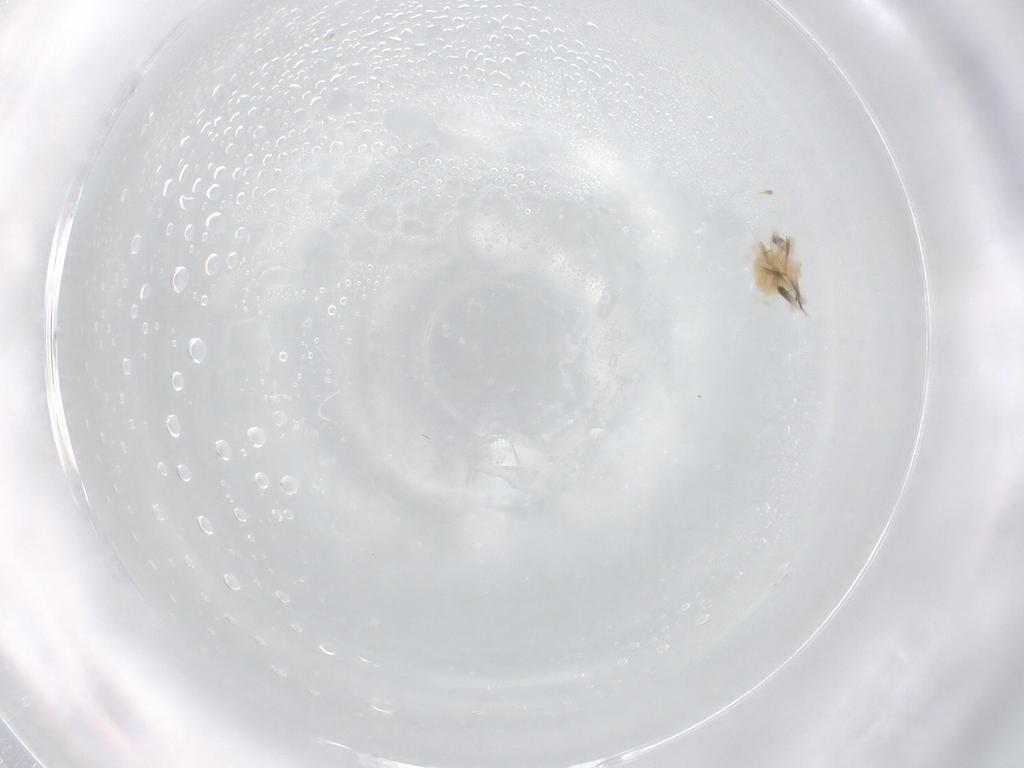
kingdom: Animalia
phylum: Arthropoda
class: Arachnida
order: Trombidiformes
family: Anystidae
